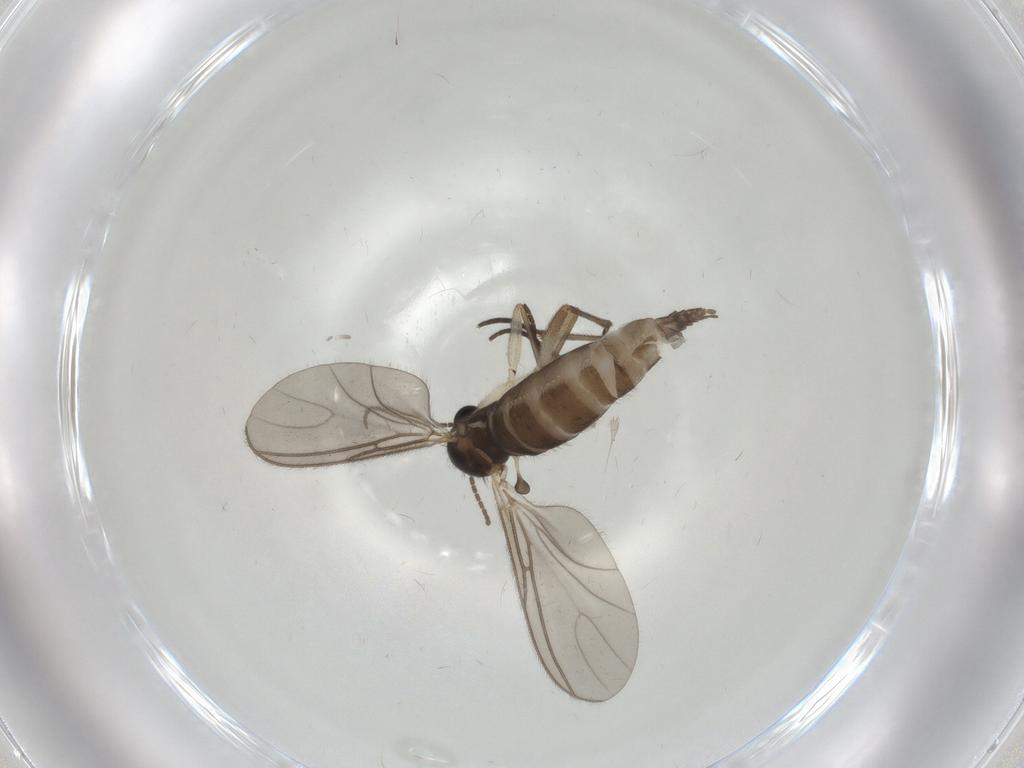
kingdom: Animalia
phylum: Arthropoda
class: Insecta
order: Diptera
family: Sciaridae
